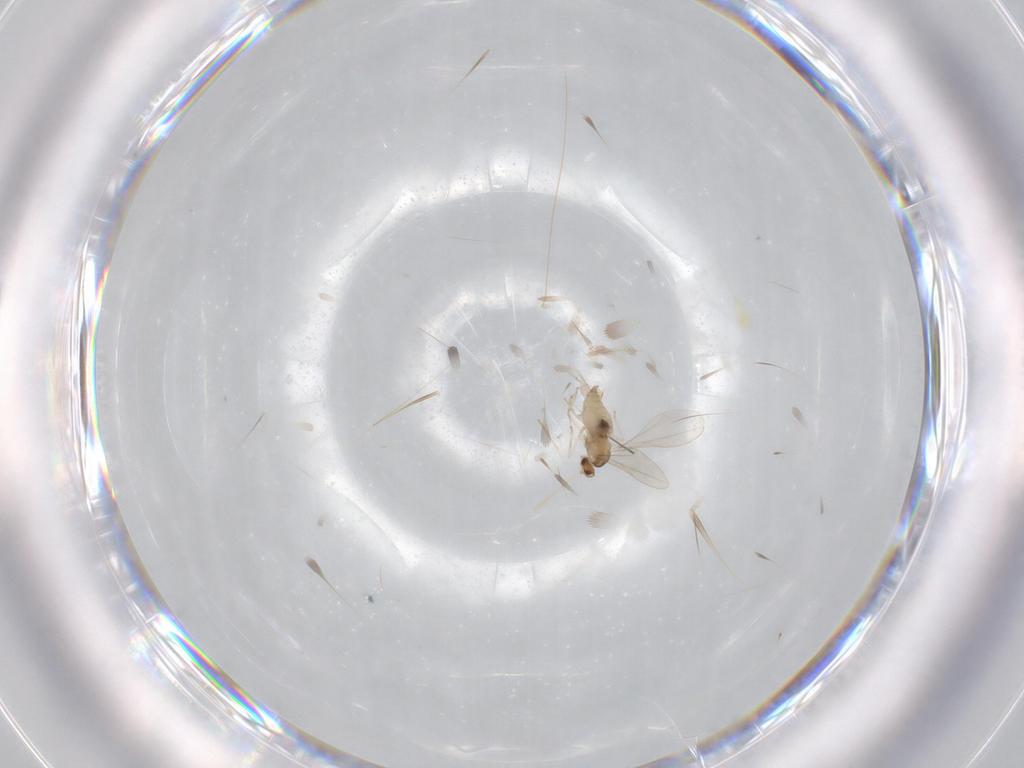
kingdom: Animalia
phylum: Arthropoda
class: Insecta
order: Diptera
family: Cecidomyiidae
